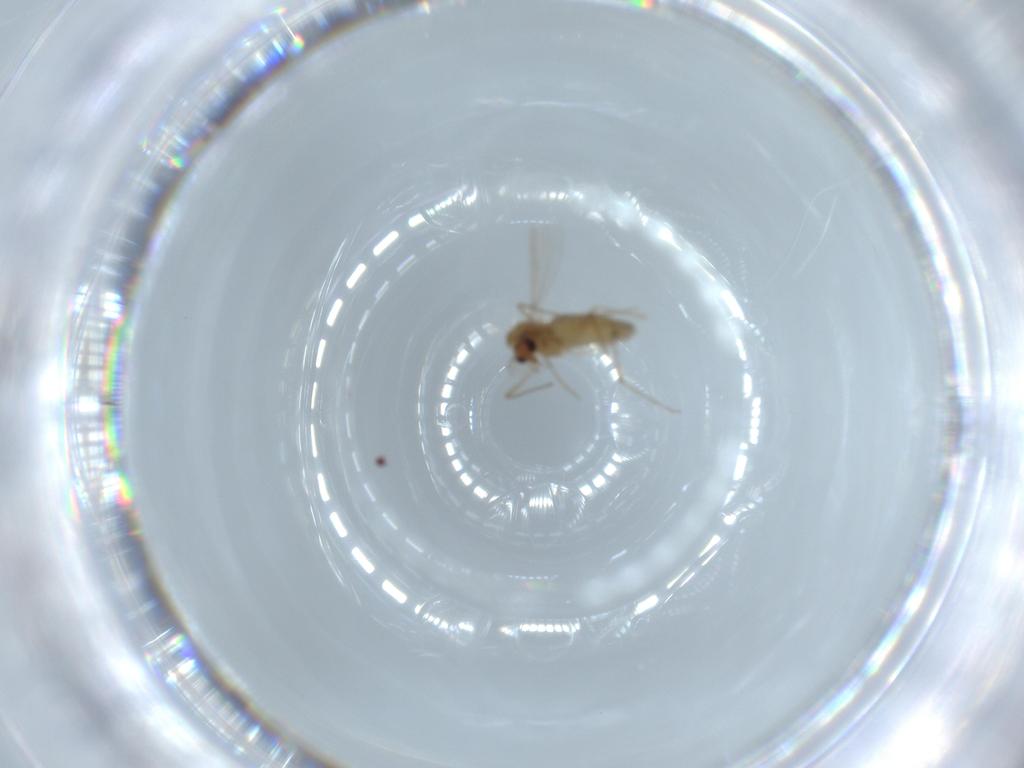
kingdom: Animalia
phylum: Arthropoda
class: Insecta
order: Diptera
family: Chironomidae
